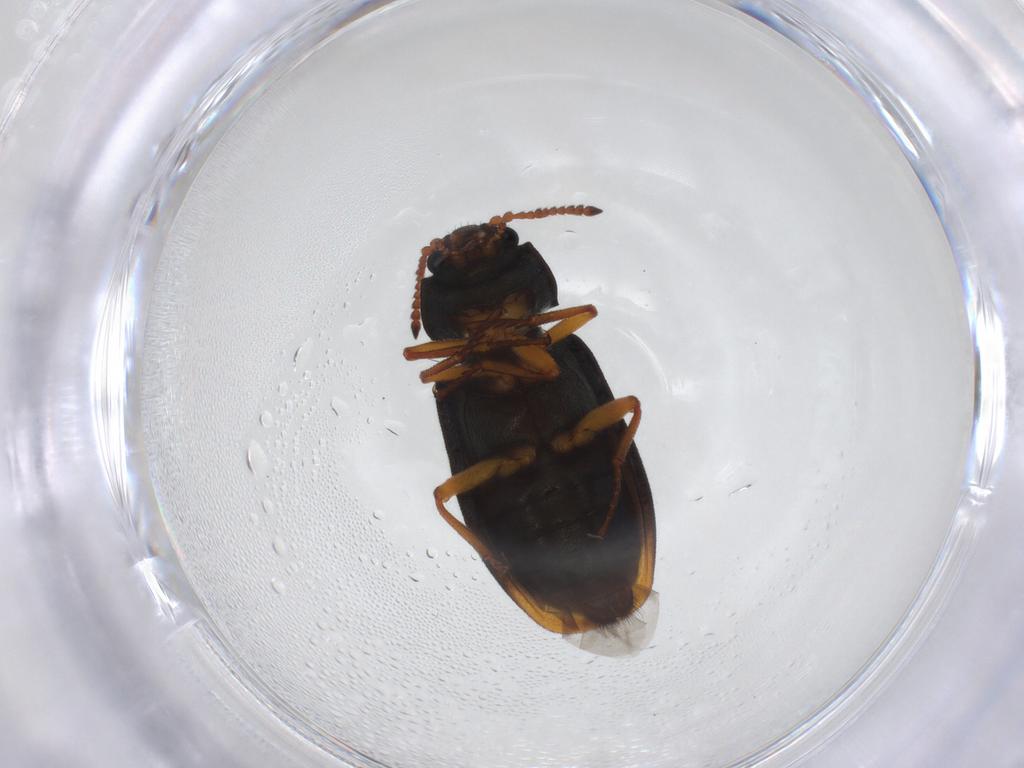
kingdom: Animalia
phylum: Arthropoda
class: Insecta
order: Coleoptera
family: Melyridae
